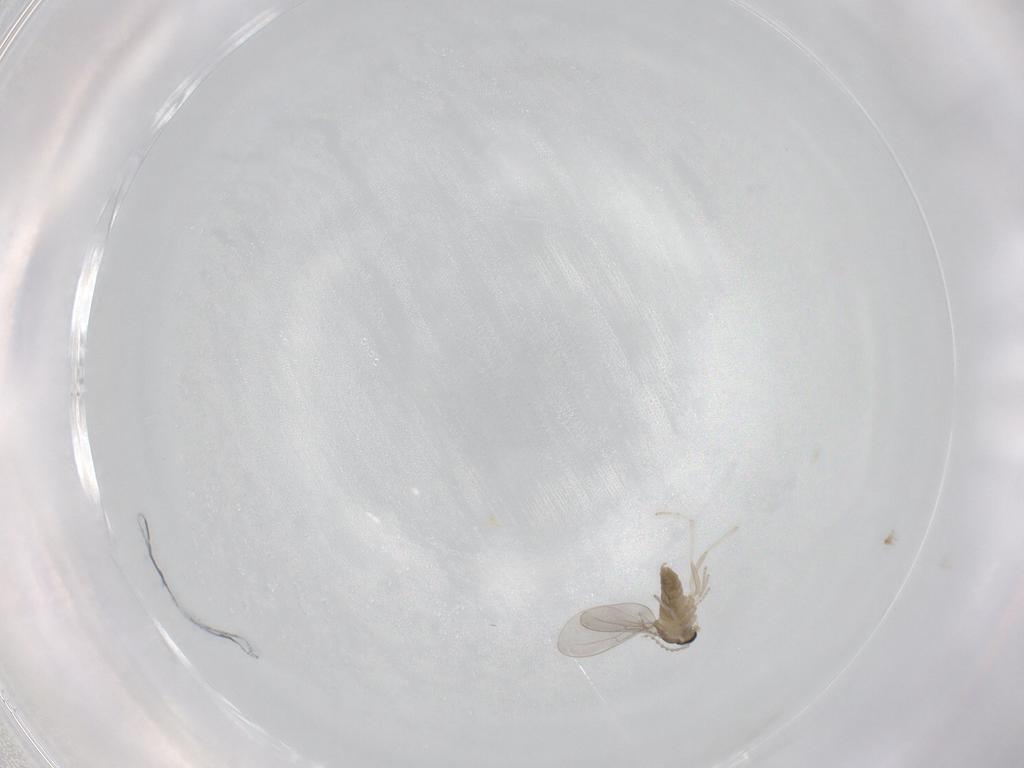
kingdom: Animalia
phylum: Arthropoda
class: Insecta
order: Diptera
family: Cecidomyiidae
